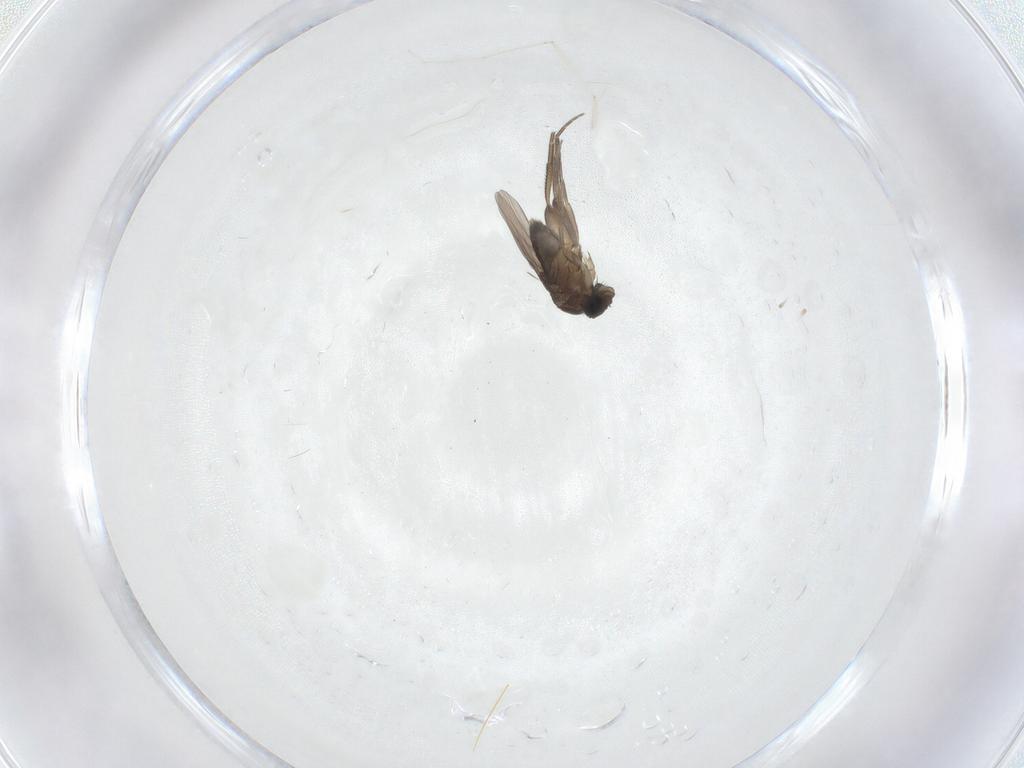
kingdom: Animalia
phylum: Arthropoda
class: Insecta
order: Diptera
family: Phoridae
